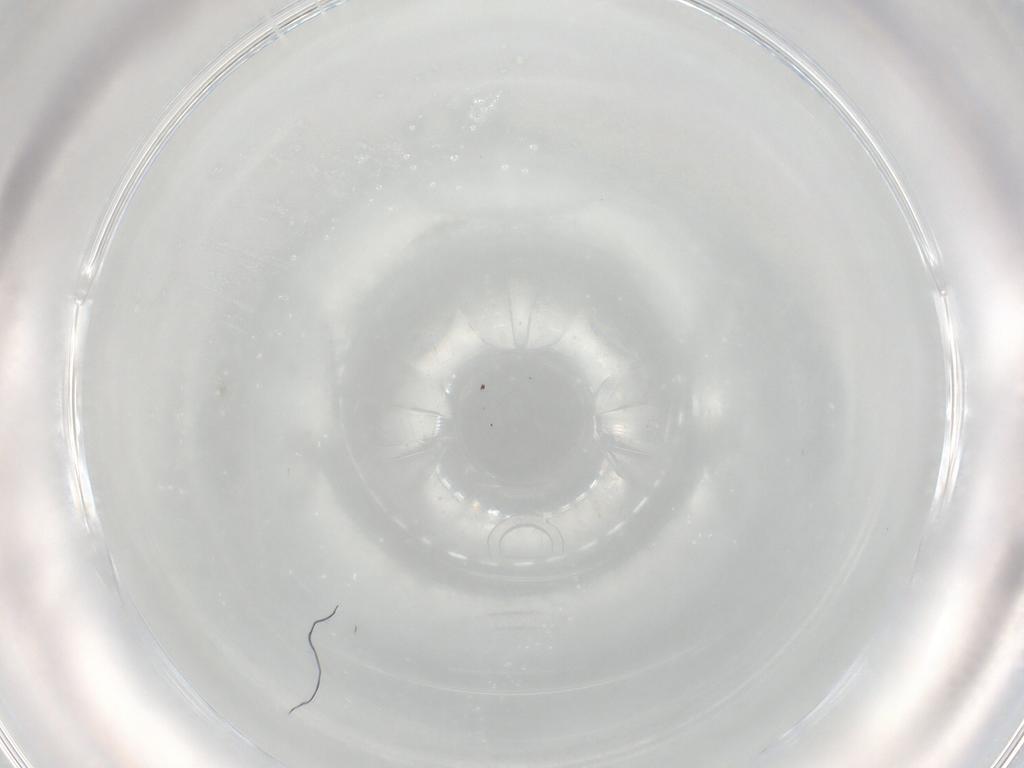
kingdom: Animalia
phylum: Arthropoda
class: Insecta
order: Diptera
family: Cecidomyiidae
